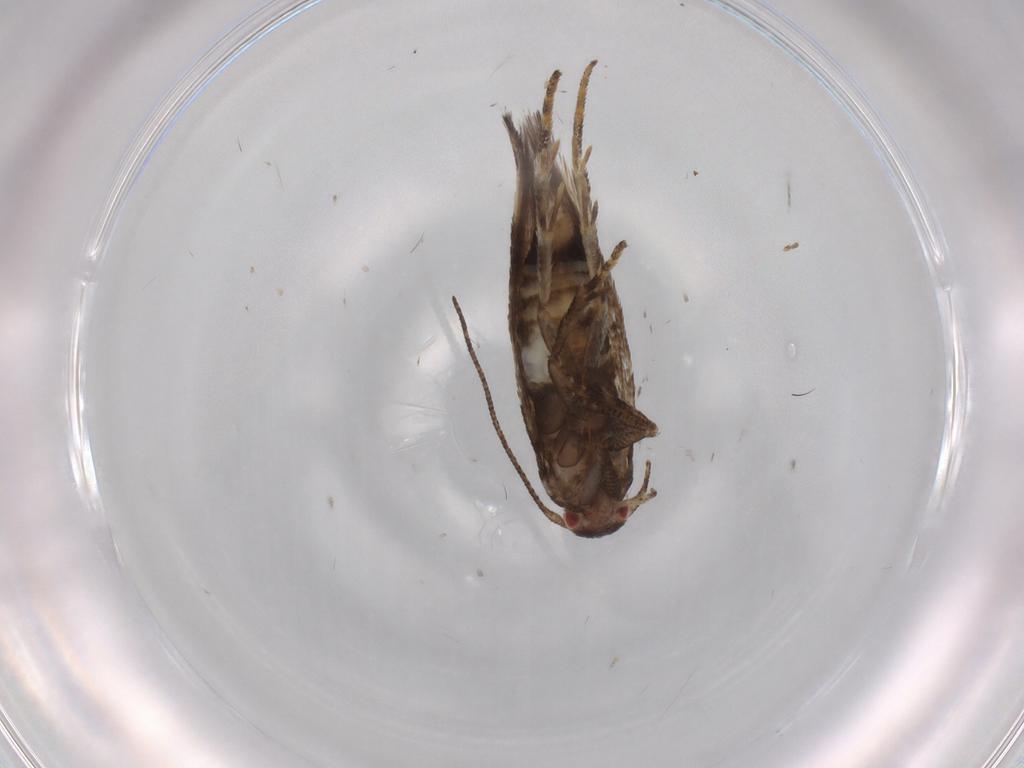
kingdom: Animalia
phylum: Arthropoda
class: Insecta
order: Lepidoptera
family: Momphidae
